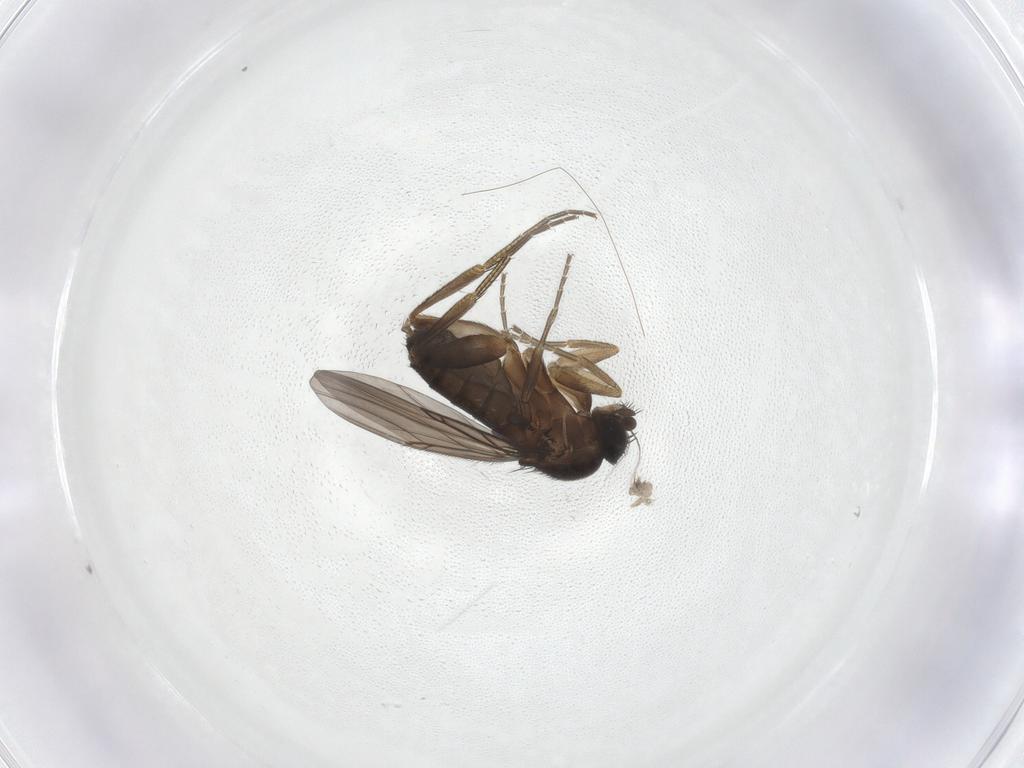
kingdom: Animalia
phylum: Arthropoda
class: Insecta
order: Diptera
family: Phoridae
